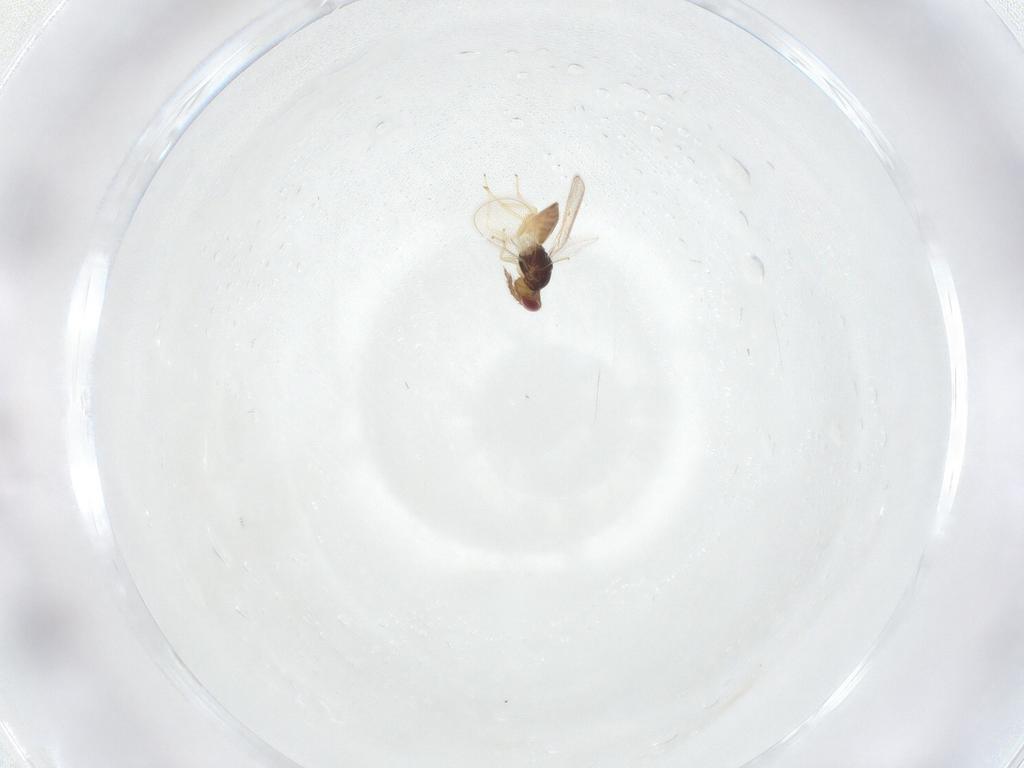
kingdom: Animalia
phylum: Arthropoda
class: Insecta
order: Hymenoptera
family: Eulophidae
